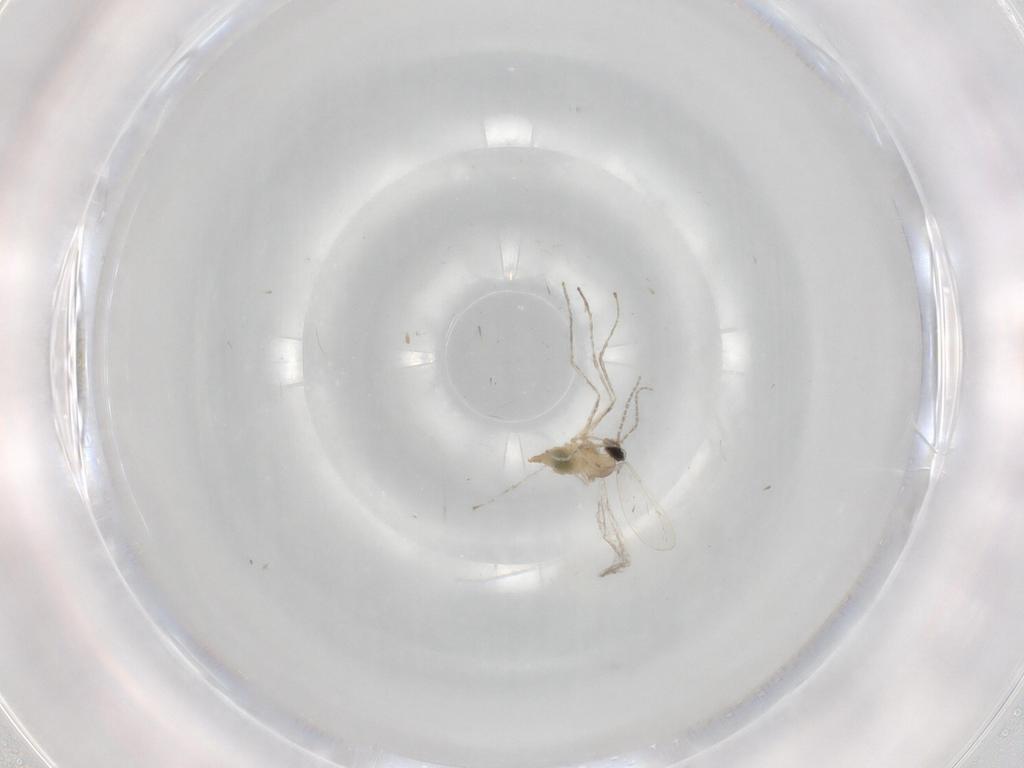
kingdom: Animalia
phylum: Arthropoda
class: Insecta
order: Diptera
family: Cecidomyiidae
